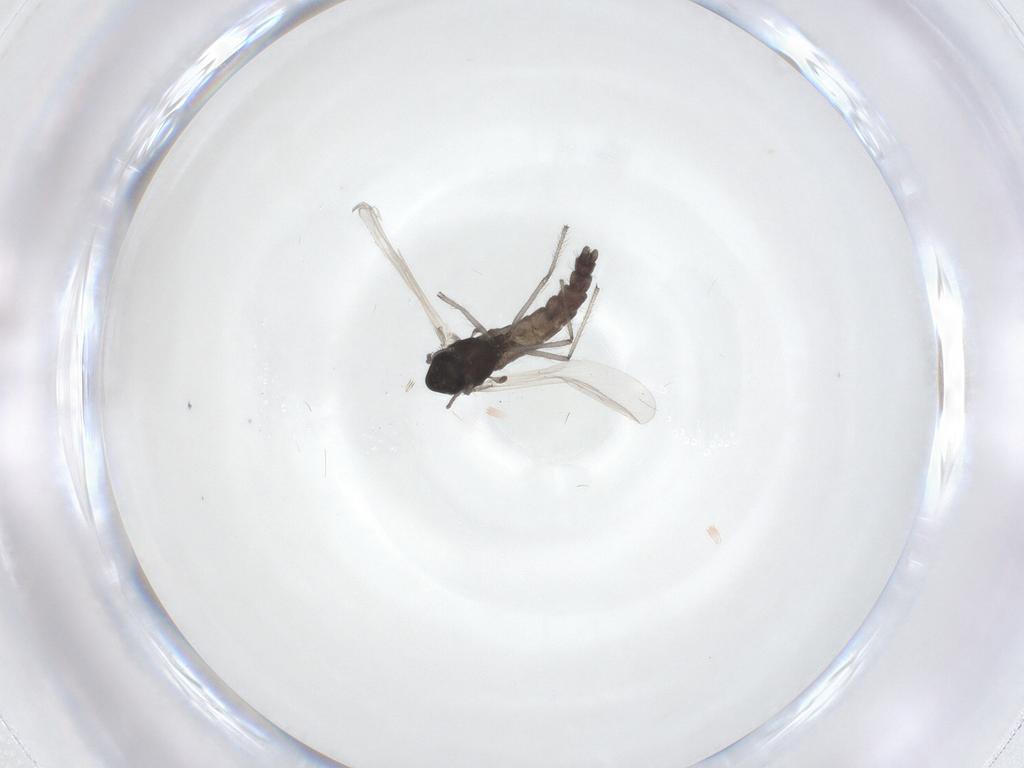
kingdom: Animalia
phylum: Arthropoda
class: Insecta
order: Diptera
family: Chironomidae
